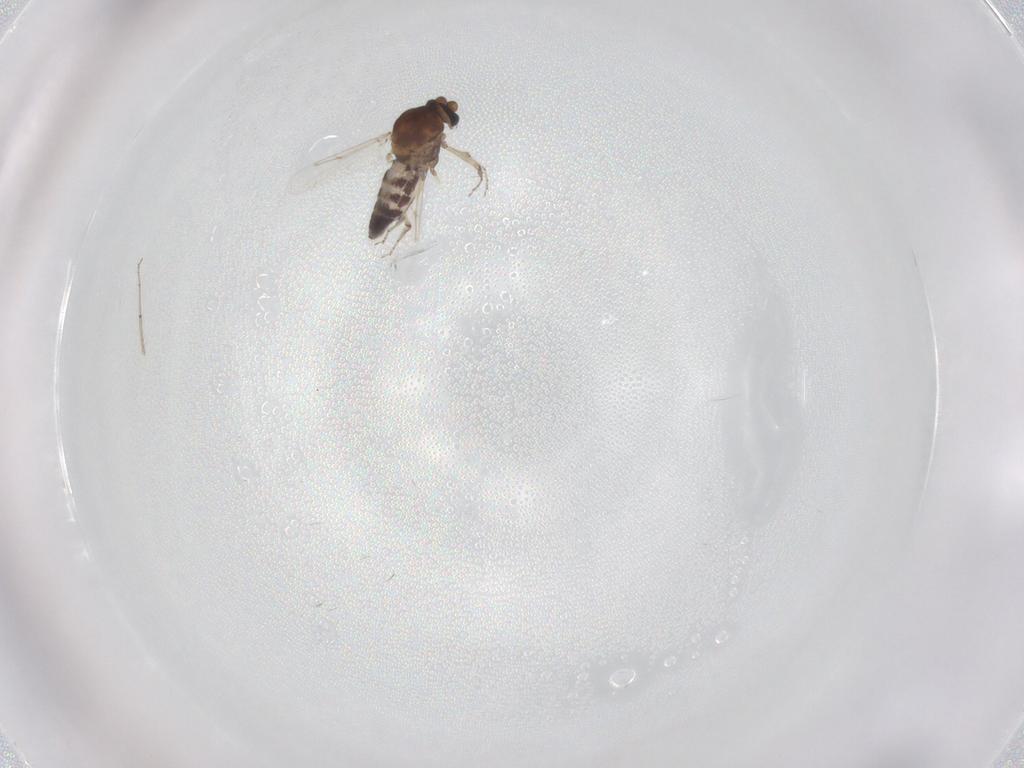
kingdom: Animalia
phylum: Arthropoda
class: Insecta
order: Diptera
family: Ceratopogonidae
